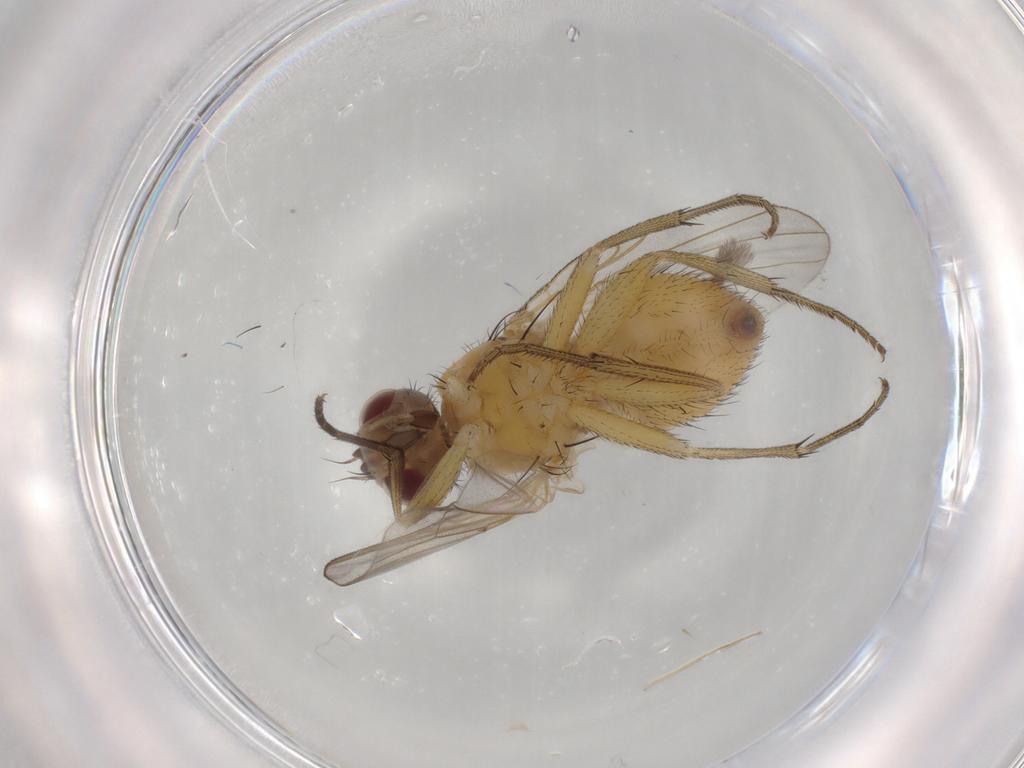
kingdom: Animalia
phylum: Arthropoda
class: Insecta
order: Diptera
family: Muscidae
